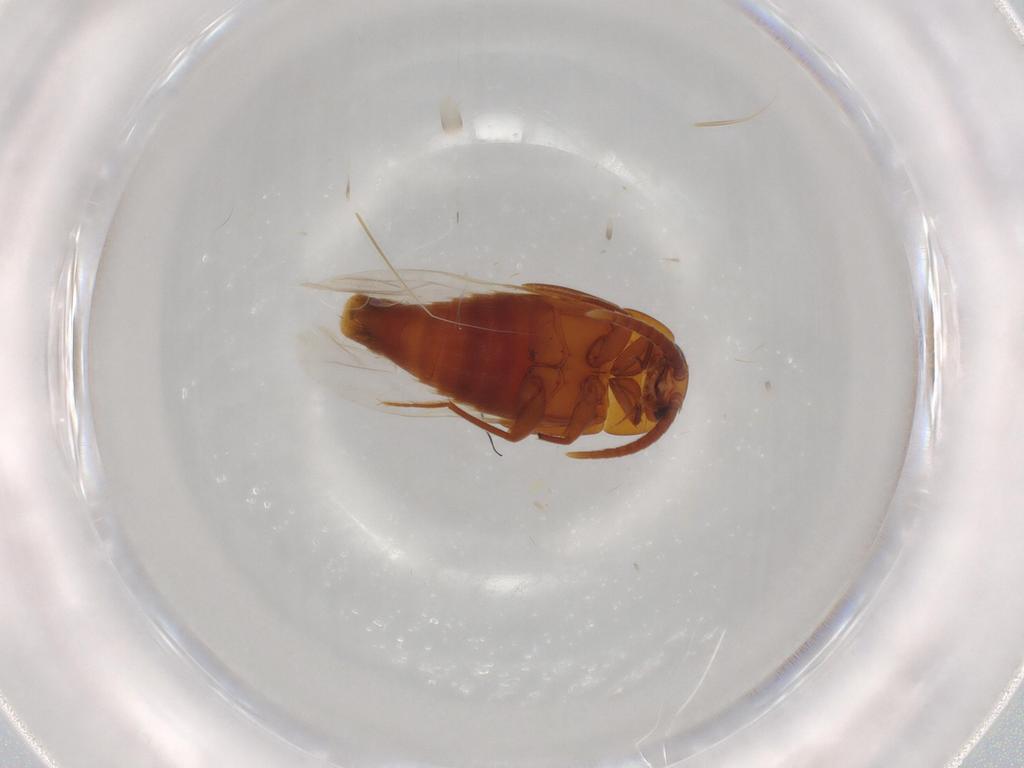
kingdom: Animalia
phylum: Arthropoda
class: Insecta
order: Coleoptera
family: Staphylinidae
